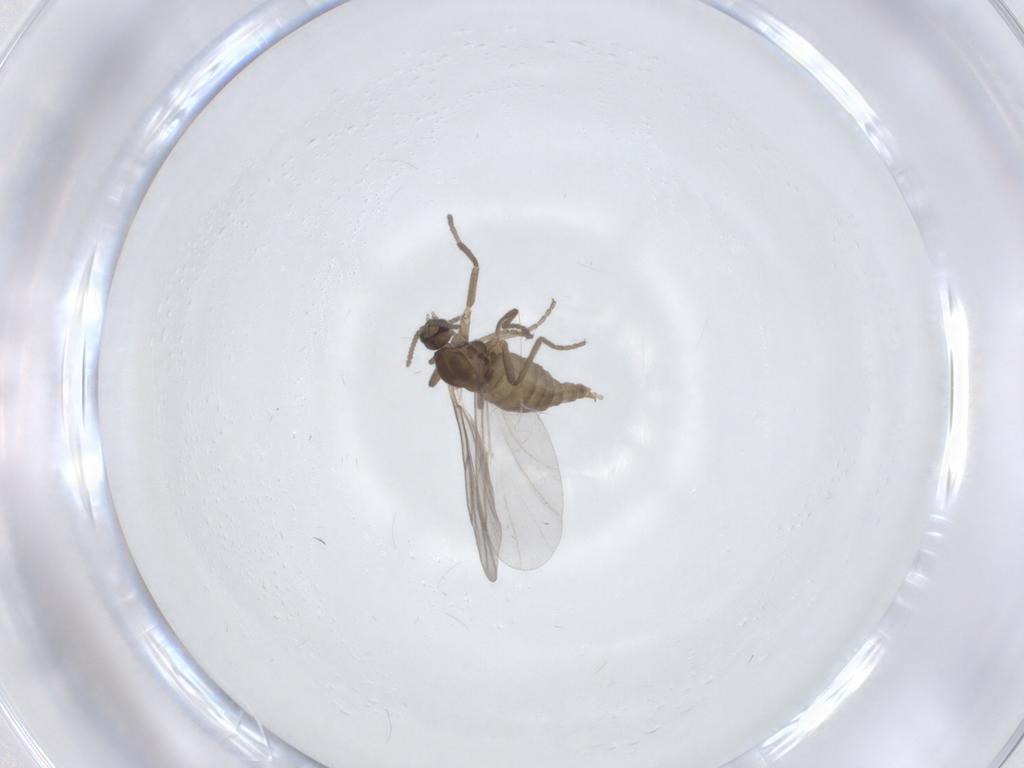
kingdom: Animalia
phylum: Arthropoda
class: Insecta
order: Diptera
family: Cecidomyiidae
